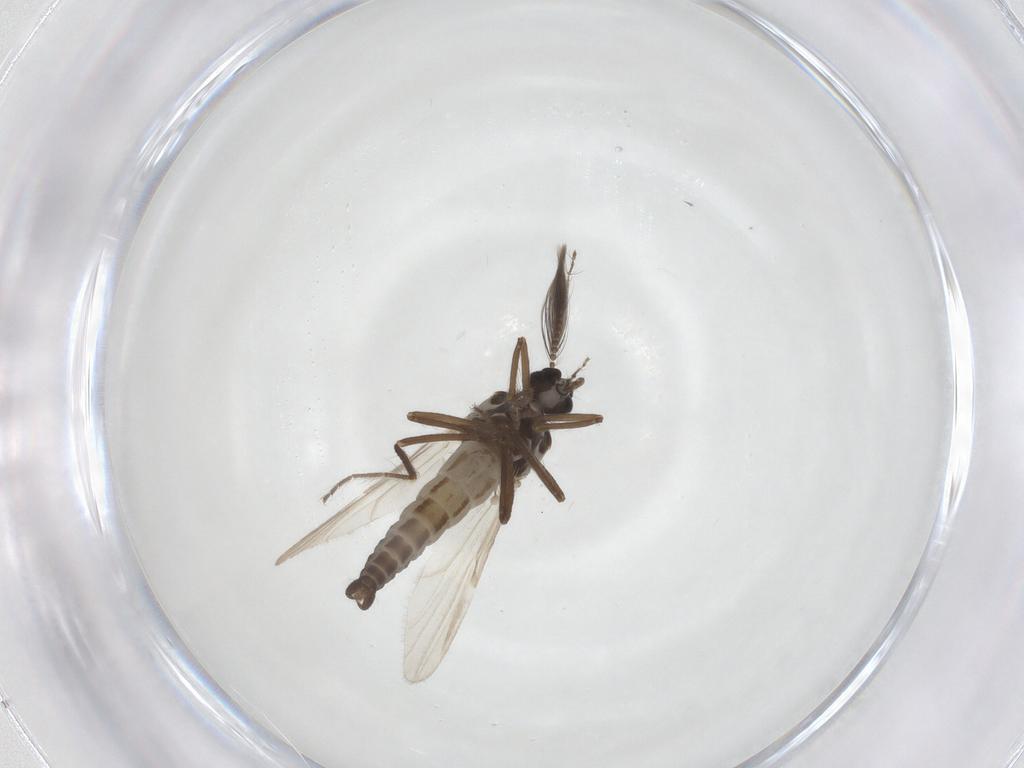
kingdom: Animalia
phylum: Arthropoda
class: Insecta
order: Diptera
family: Ceratopogonidae
